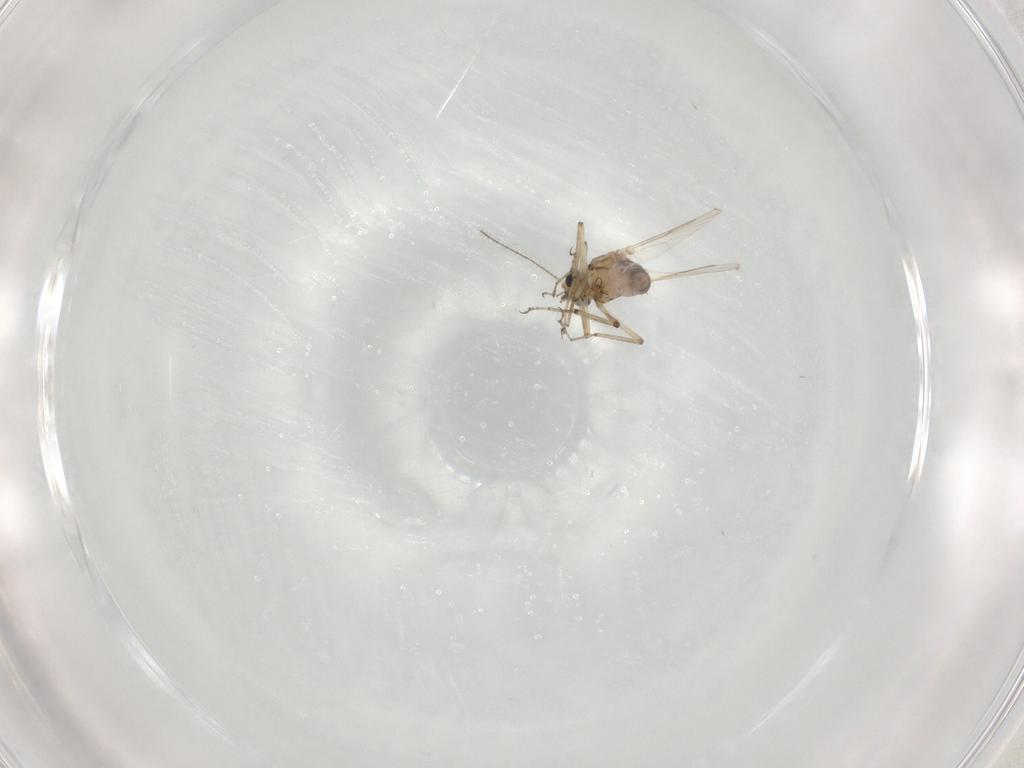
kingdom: Animalia
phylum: Arthropoda
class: Insecta
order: Diptera
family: Ceratopogonidae
